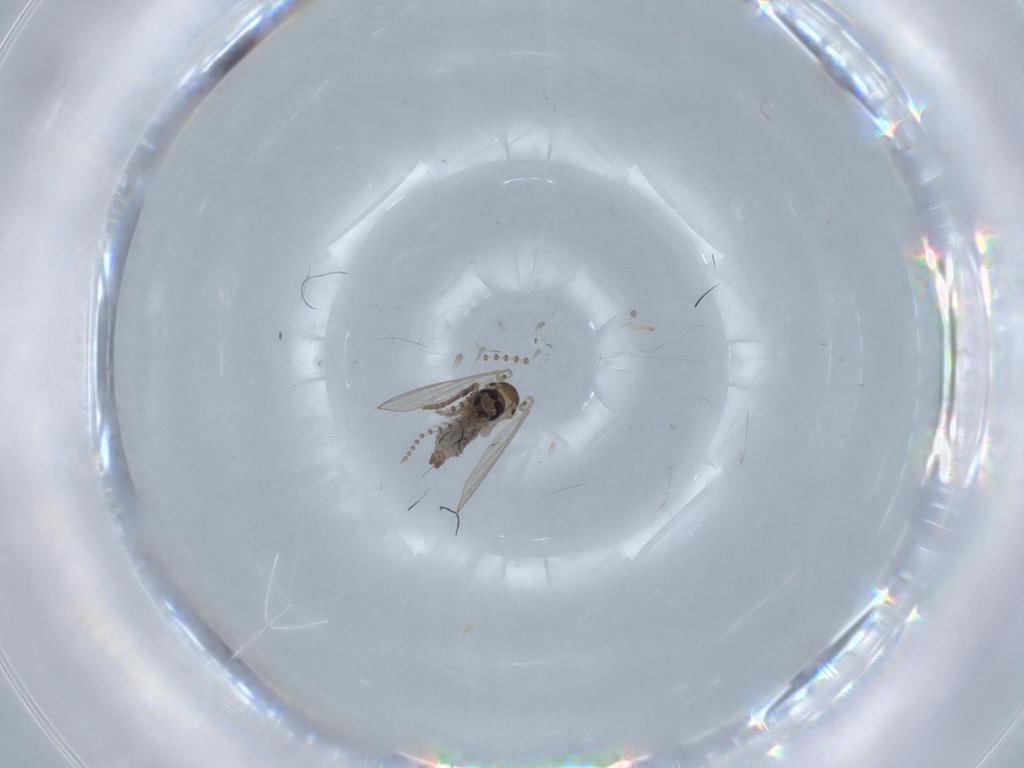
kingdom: Animalia
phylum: Arthropoda
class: Insecta
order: Diptera
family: Psychodidae
